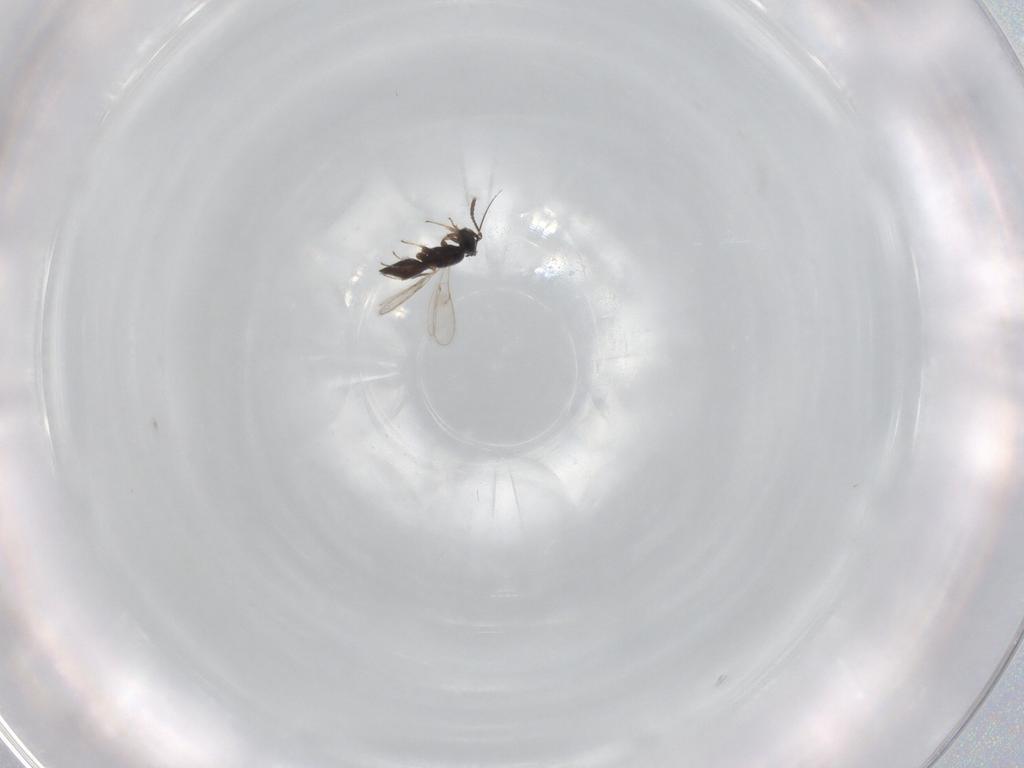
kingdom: Animalia
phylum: Arthropoda
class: Insecta
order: Hymenoptera
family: Scelionidae
